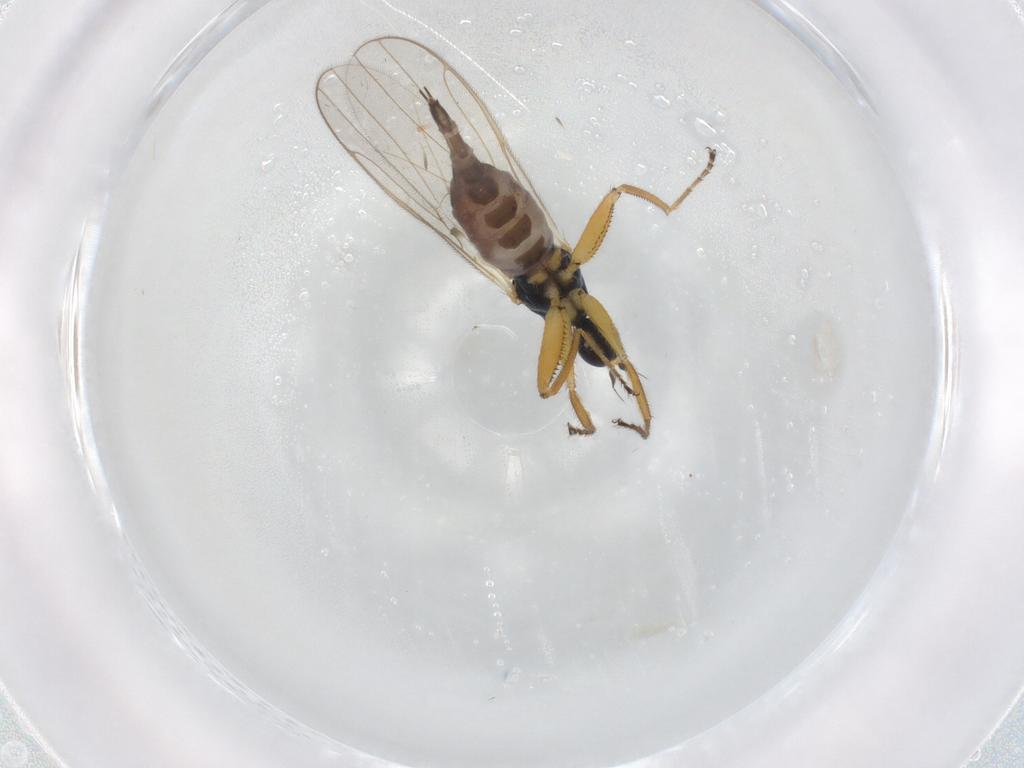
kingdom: Animalia
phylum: Arthropoda
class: Insecta
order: Diptera
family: Hybotidae
